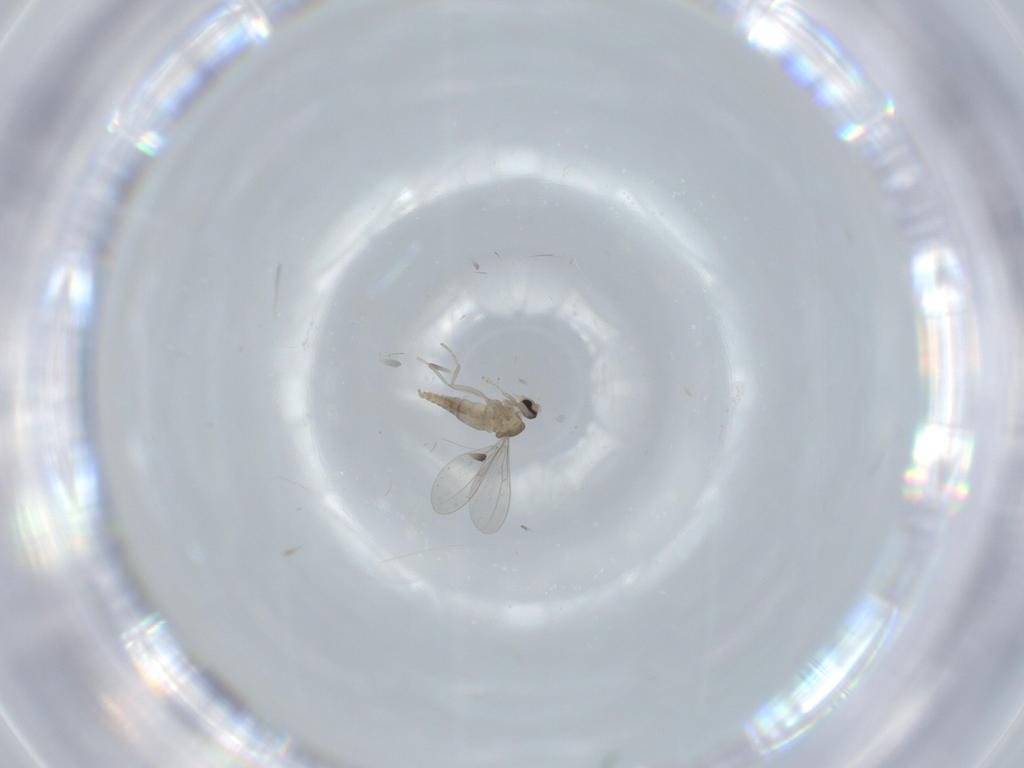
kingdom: Animalia
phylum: Arthropoda
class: Insecta
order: Diptera
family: Cecidomyiidae
